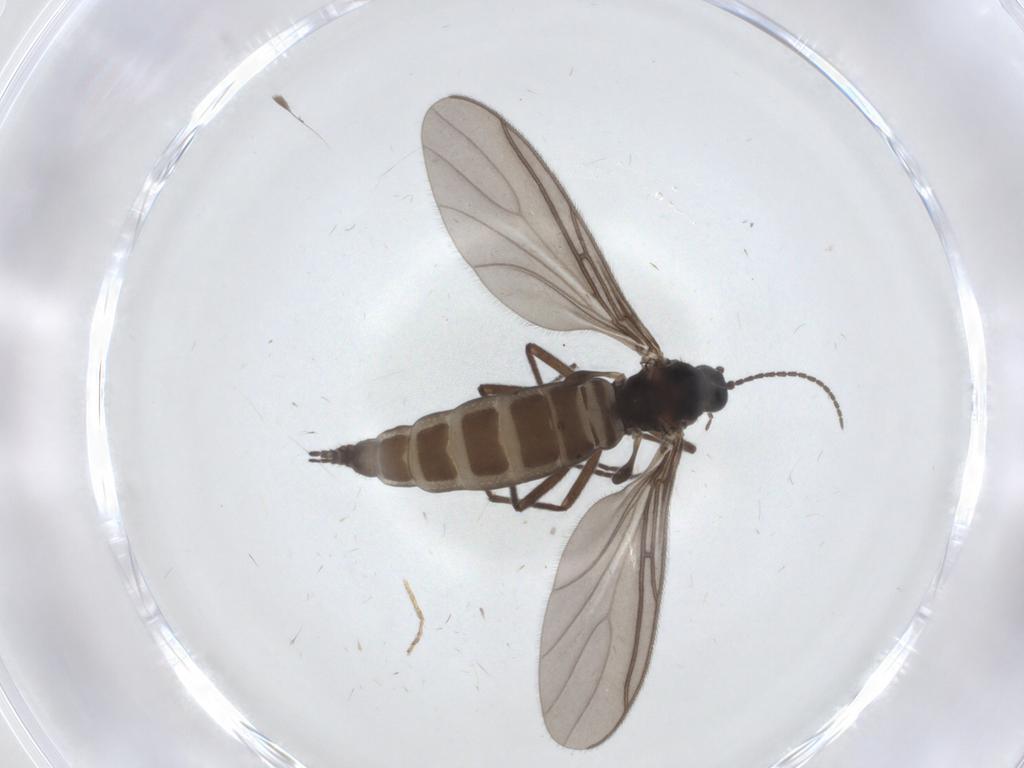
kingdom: Animalia
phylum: Arthropoda
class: Insecta
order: Diptera
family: Sciaridae
